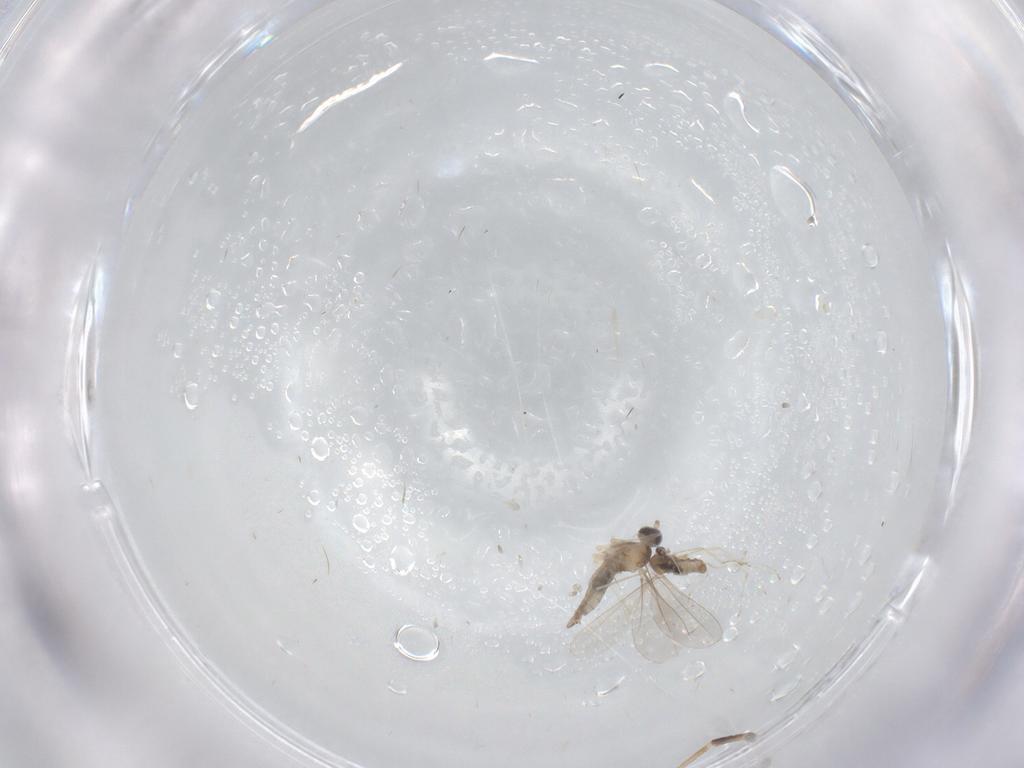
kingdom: Animalia
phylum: Arthropoda
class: Insecta
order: Diptera
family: Cecidomyiidae
